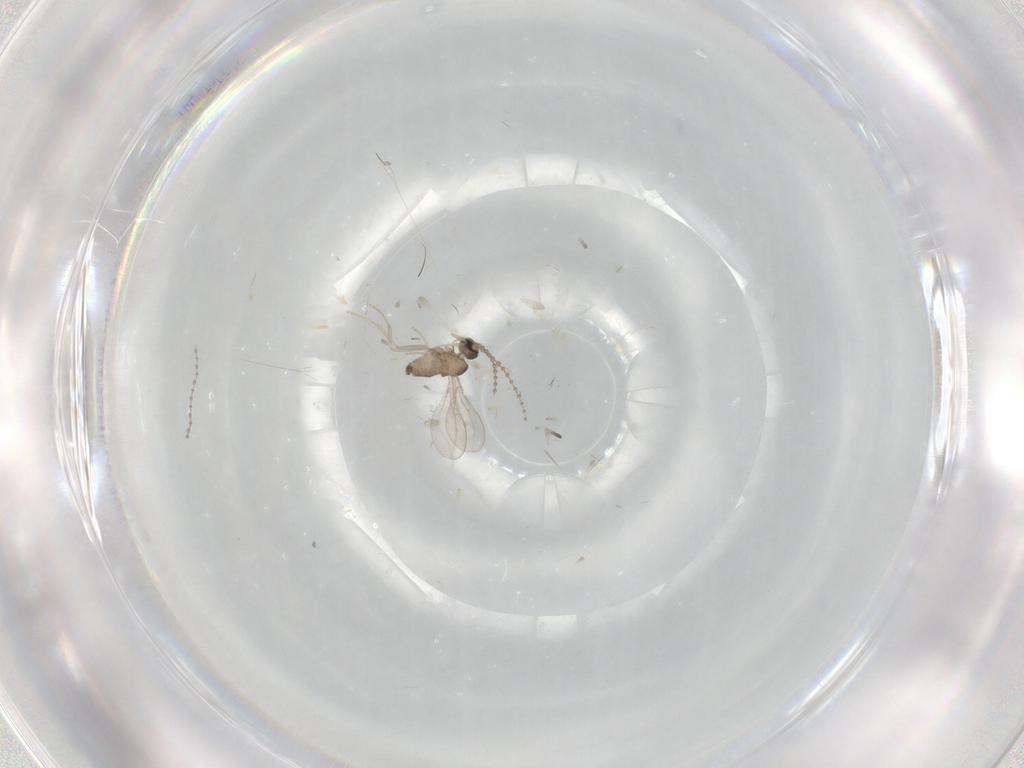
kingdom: Animalia
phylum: Arthropoda
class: Insecta
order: Diptera
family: Cecidomyiidae
